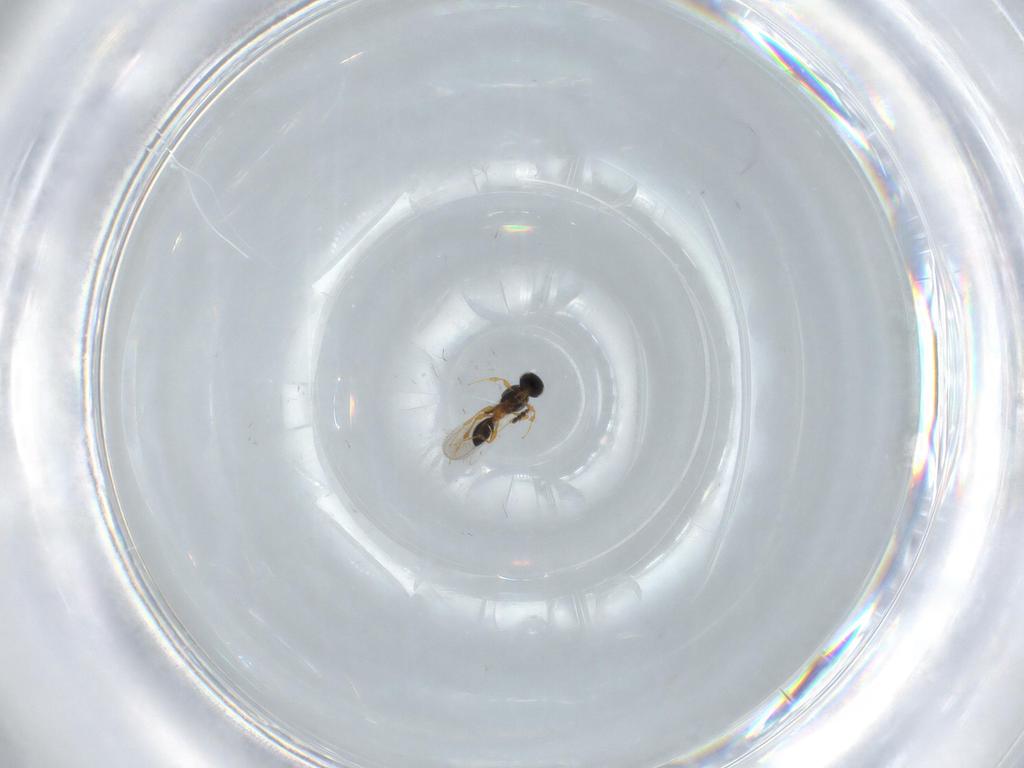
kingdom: Animalia
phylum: Arthropoda
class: Insecta
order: Hymenoptera
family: Platygastridae
